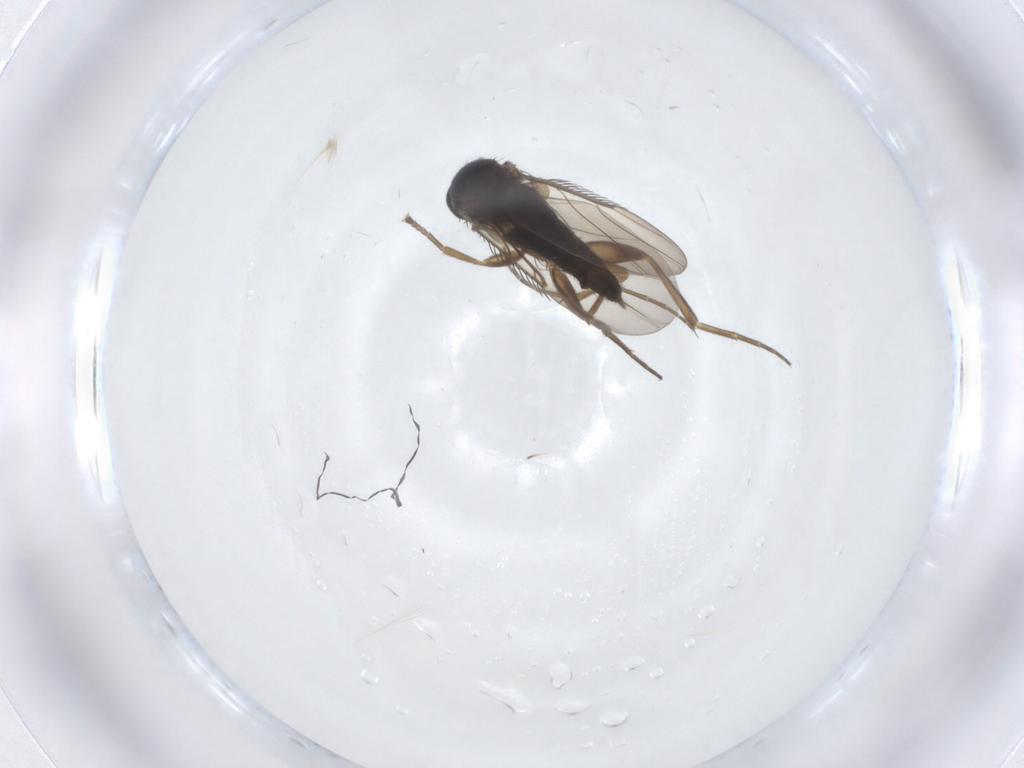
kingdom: Animalia
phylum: Arthropoda
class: Insecta
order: Diptera
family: Phoridae
